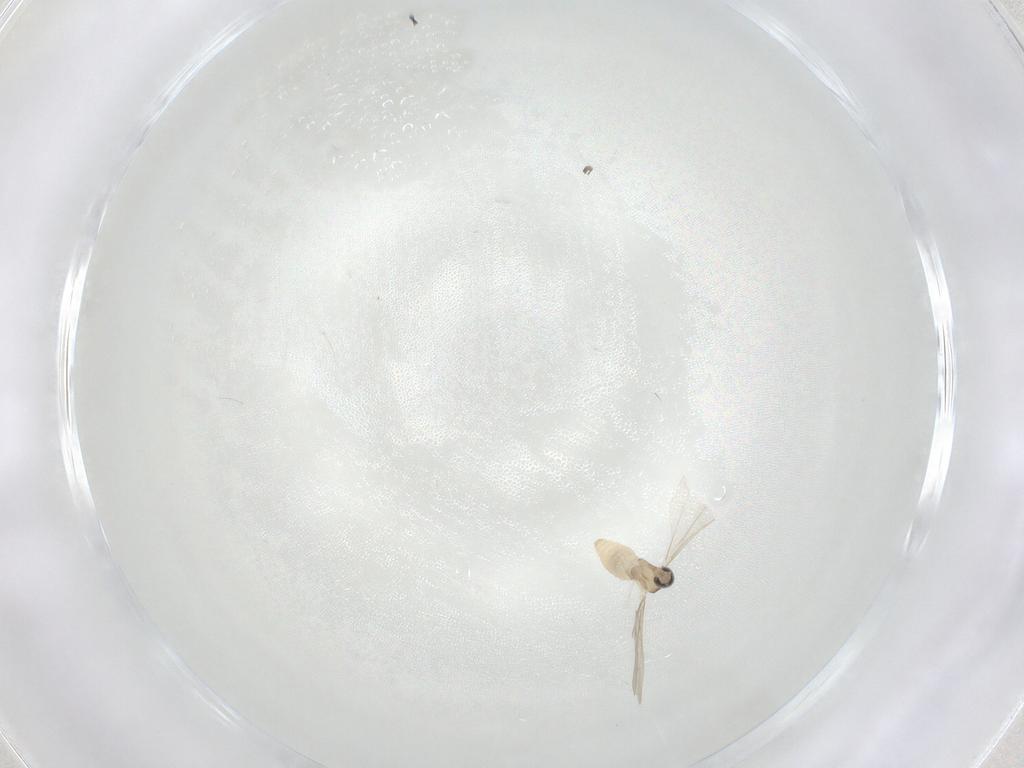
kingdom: Animalia
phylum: Arthropoda
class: Insecta
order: Diptera
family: Cecidomyiidae
